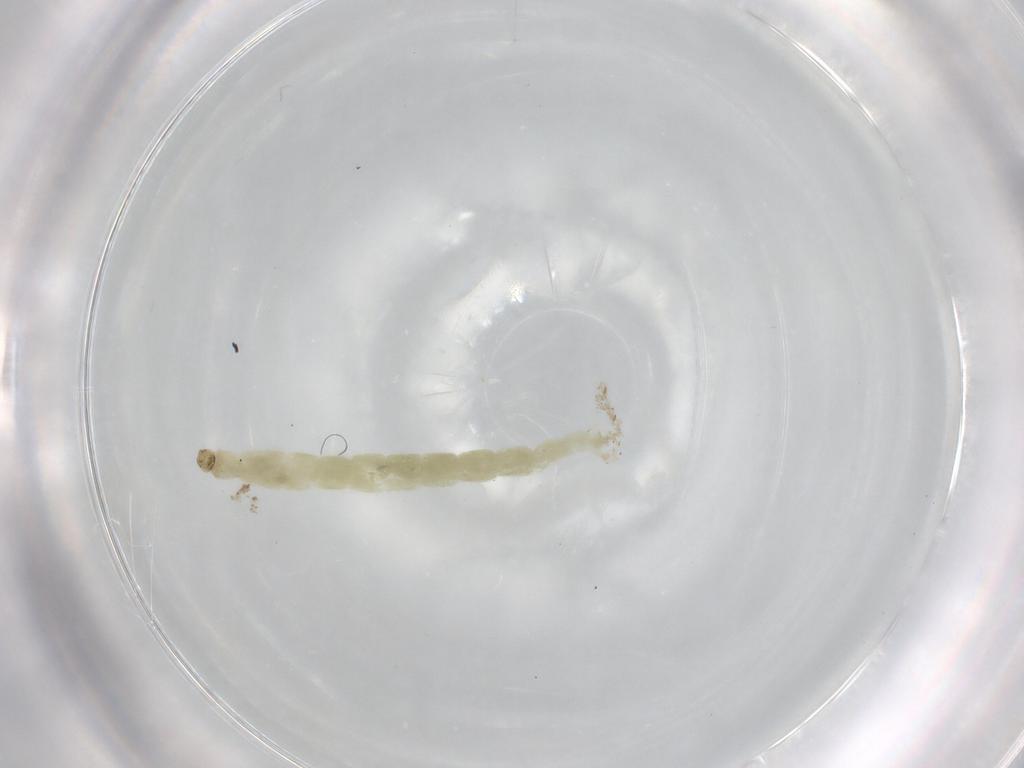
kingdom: Animalia
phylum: Arthropoda
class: Insecta
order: Diptera
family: Chironomidae
